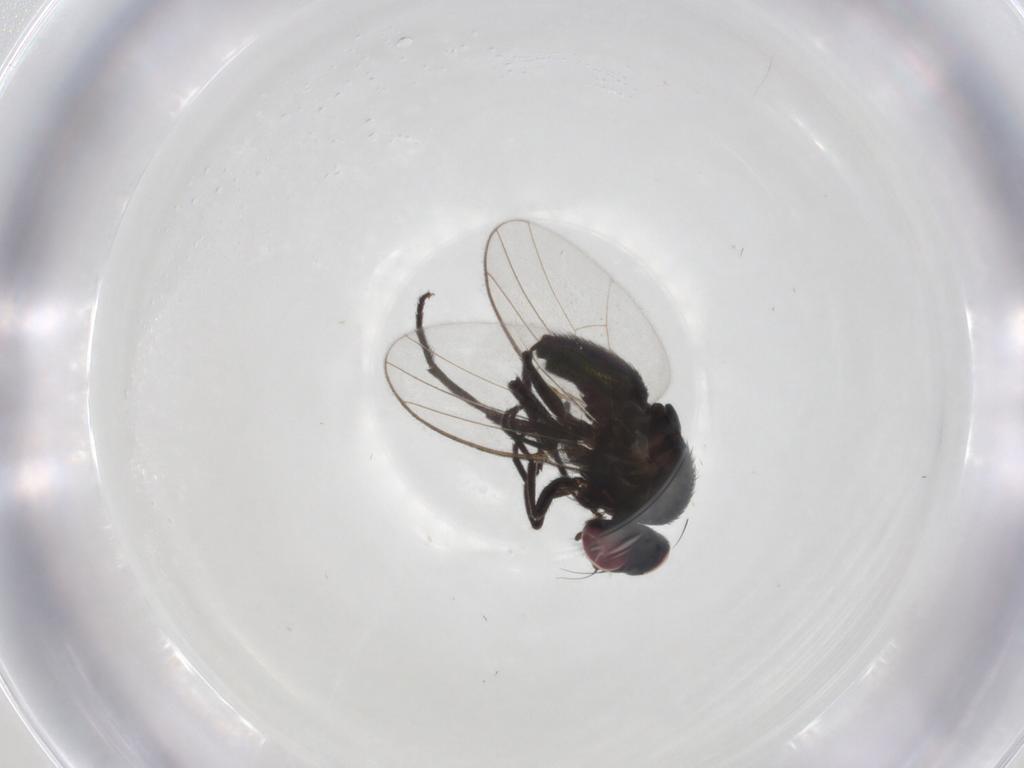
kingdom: Animalia
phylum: Arthropoda
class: Insecta
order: Diptera
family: Agromyzidae
